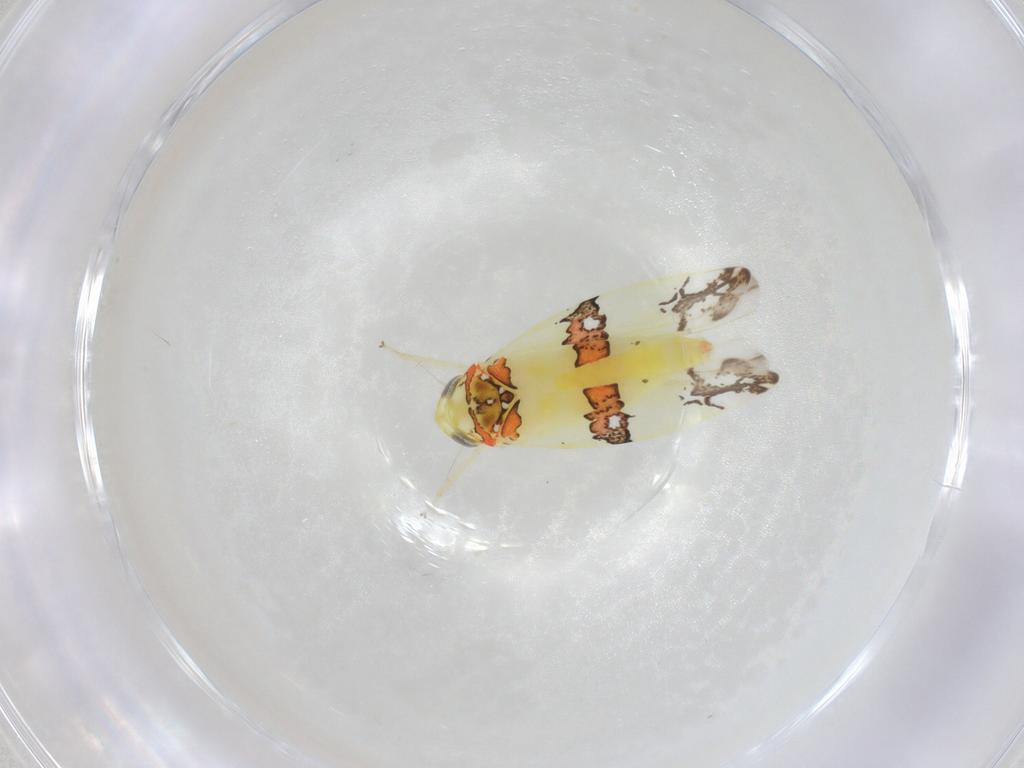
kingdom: Animalia
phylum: Arthropoda
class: Insecta
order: Hemiptera
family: Cicadellidae
